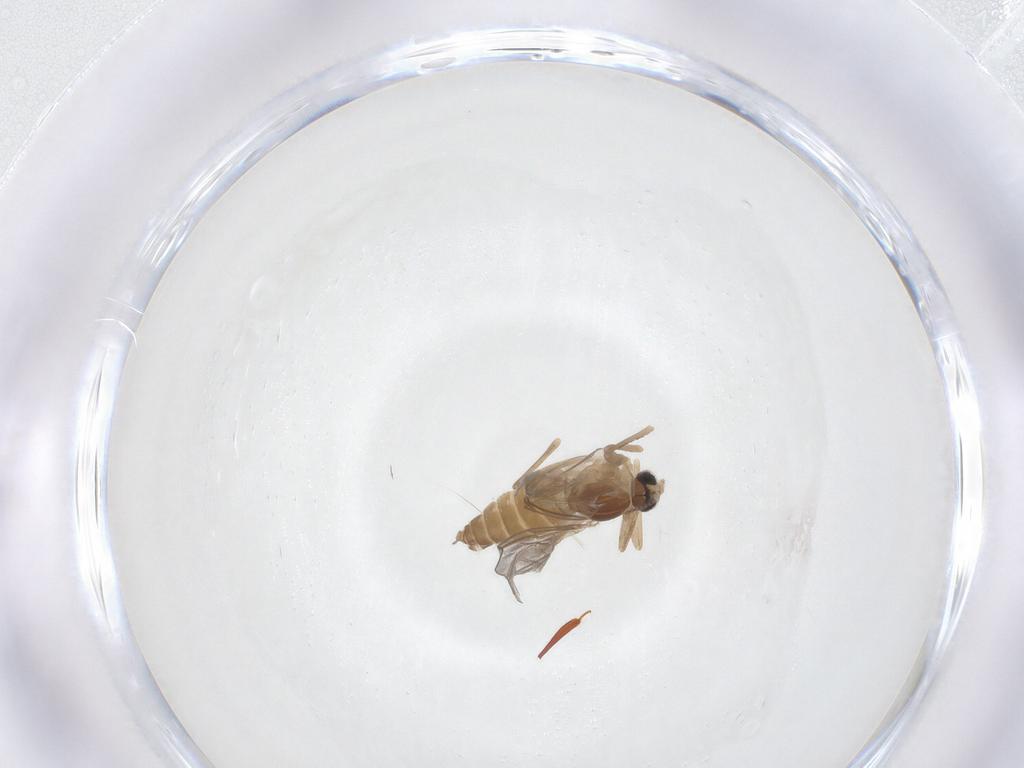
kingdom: Animalia
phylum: Arthropoda
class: Insecta
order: Diptera
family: Cecidomyiidae
